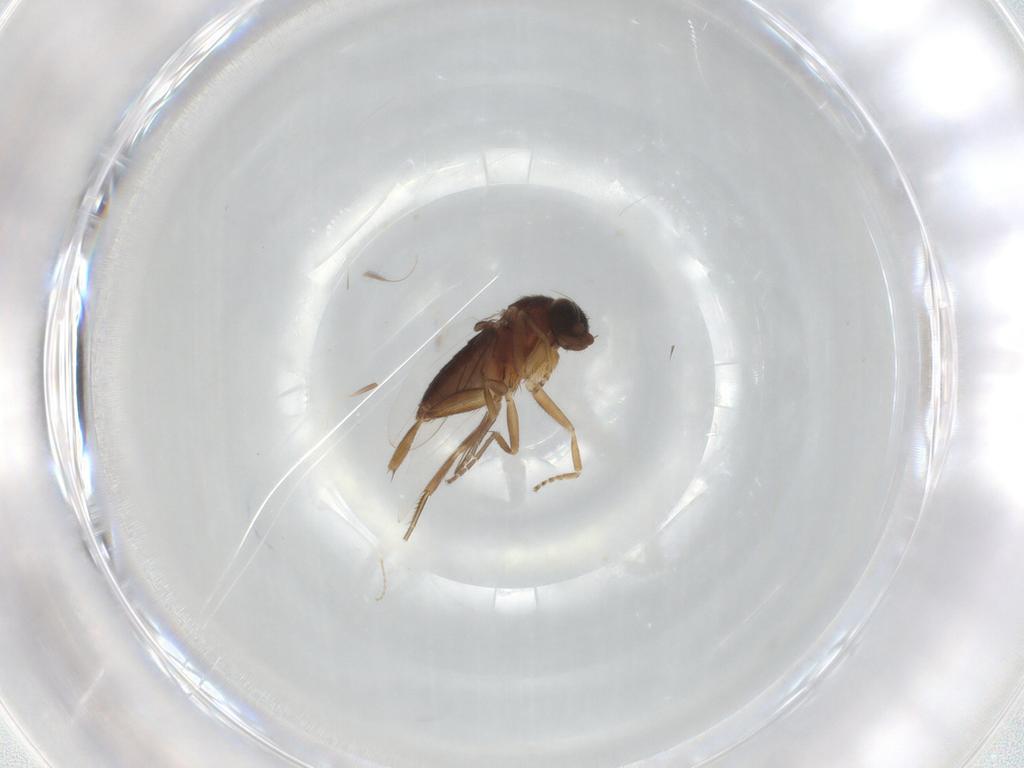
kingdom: Animalia
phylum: Arthropoda
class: Insecta
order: Diptera
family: Phoridae
